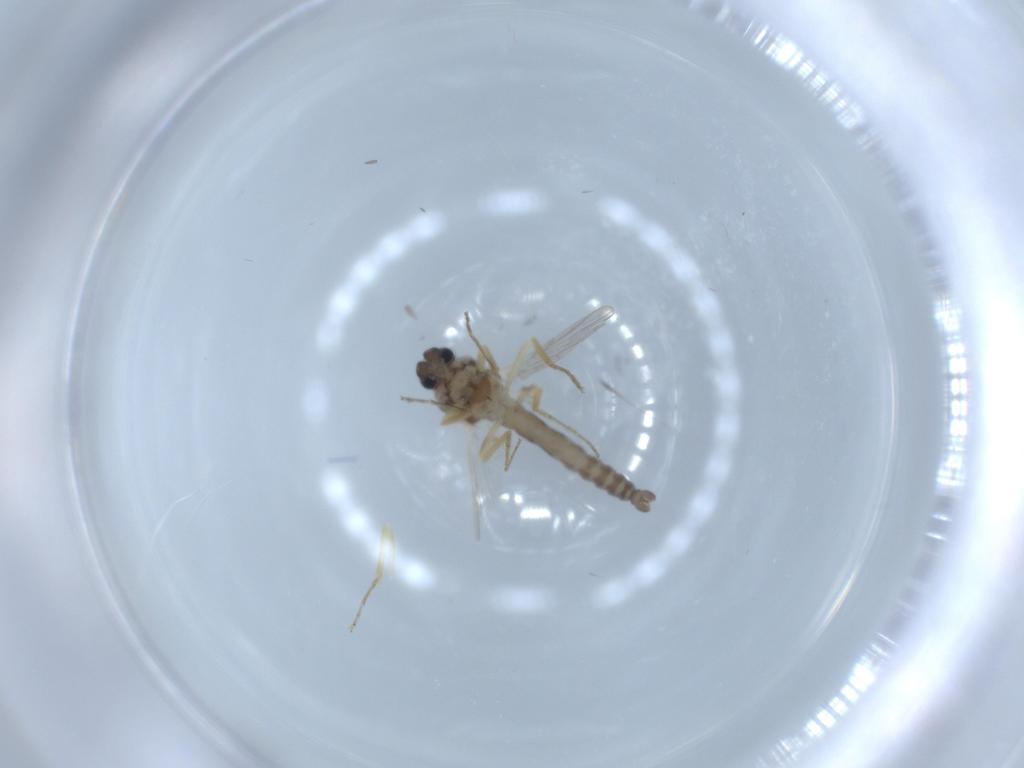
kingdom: Animalia
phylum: Arthropoda
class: Insecta
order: Diptera
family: Ceratopogonidae
